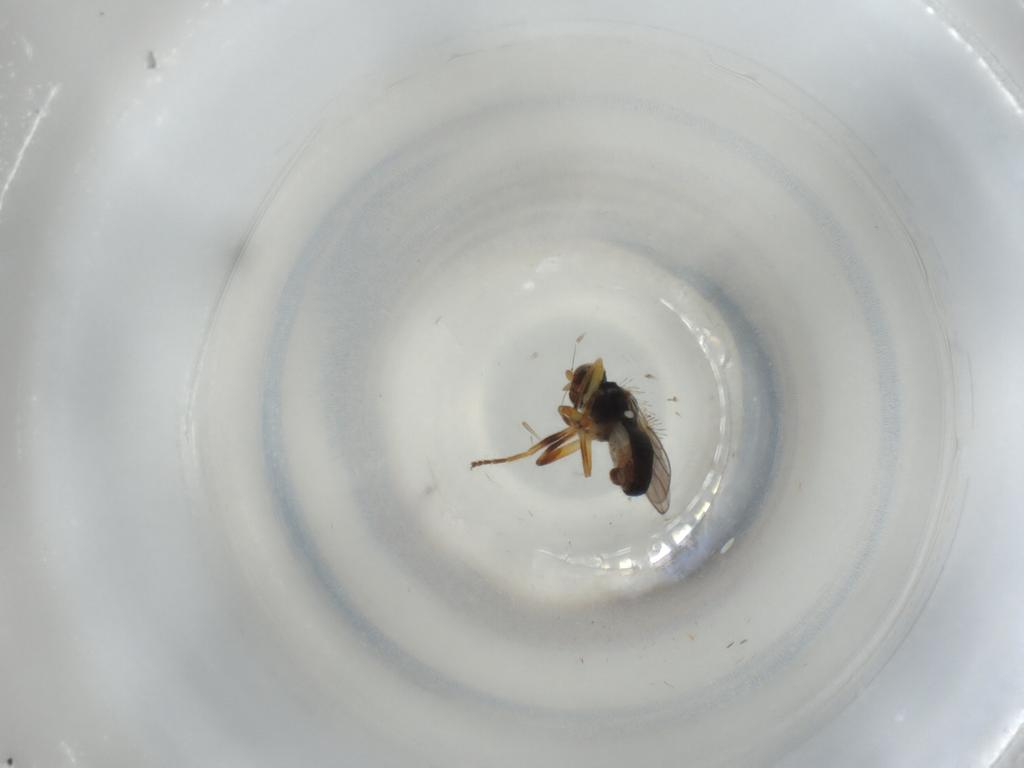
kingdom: Animalia
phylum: Arthropoda
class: Insecta
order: Diptera
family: Chloropidae
